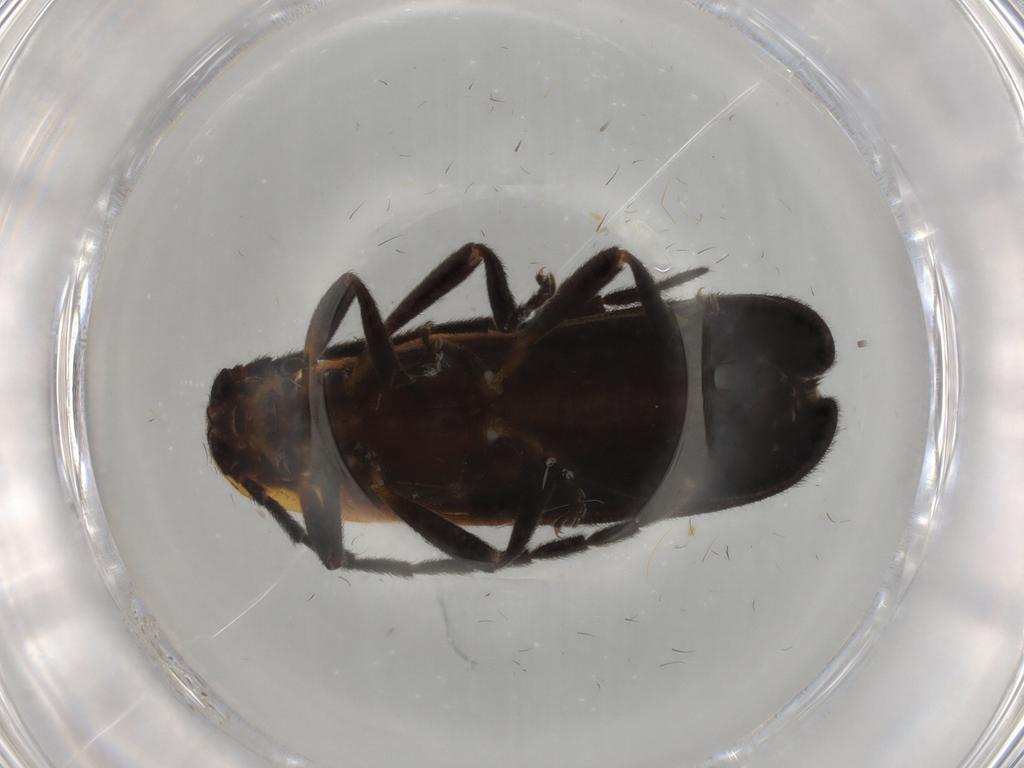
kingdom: Animalia
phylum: Arthropoda
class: Insecta
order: Coleoptera
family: Lycidae
